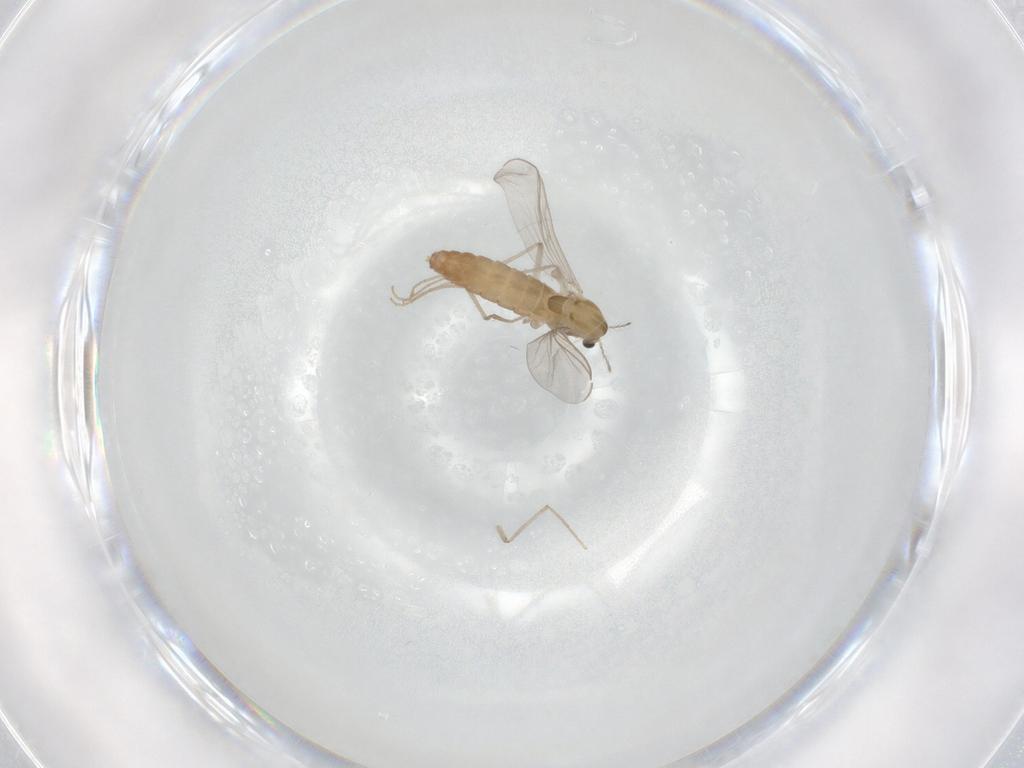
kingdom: Animalia
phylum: Arthropoda
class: Insecta
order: Diptera
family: Chironomidae
